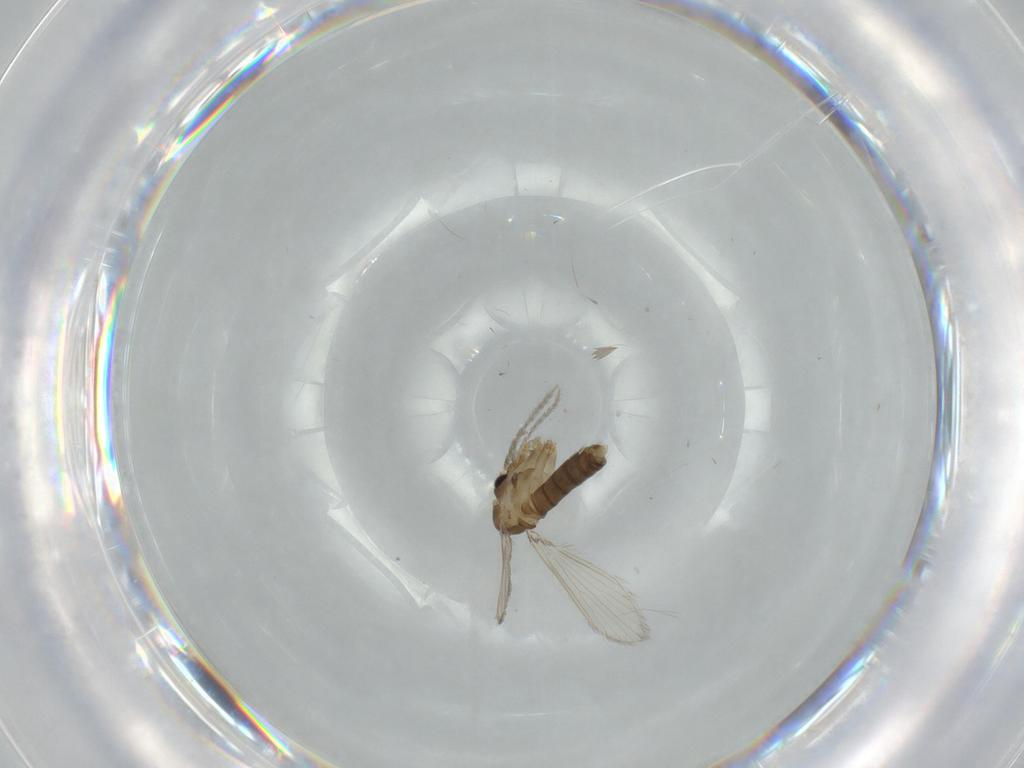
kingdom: Animalia
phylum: Arthropoda
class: Insecta
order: Diptera
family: Psychodidae
